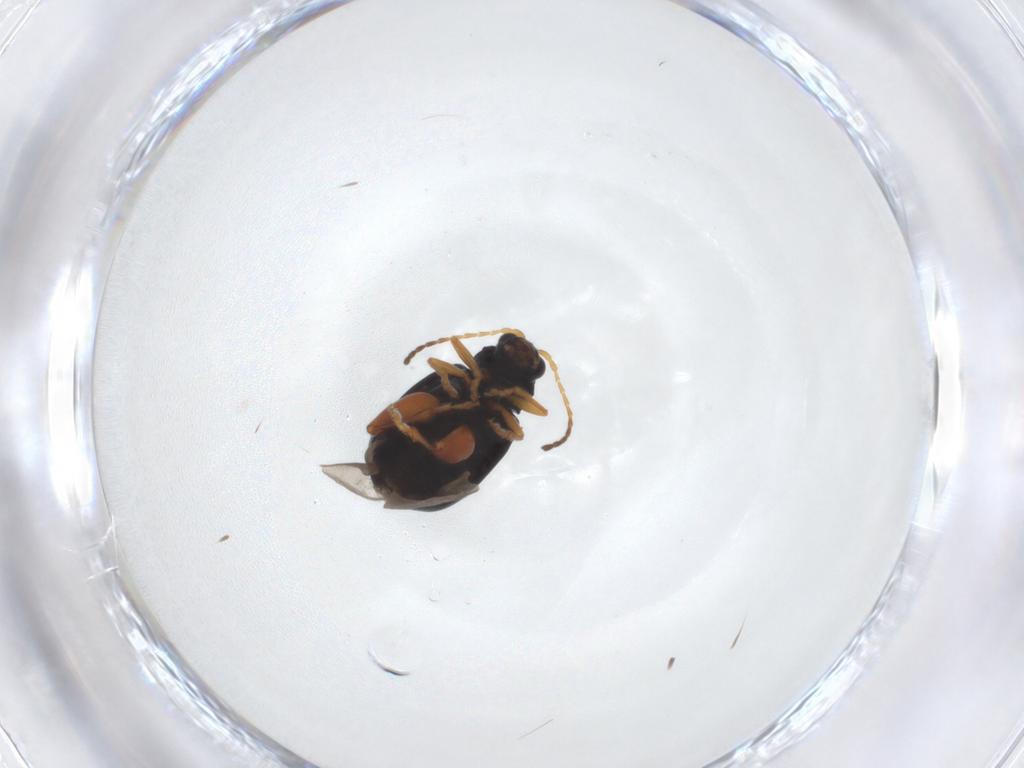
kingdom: Animalia
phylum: Arthropoda
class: Insecta
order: Coleoptera
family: Chrysomelidae
